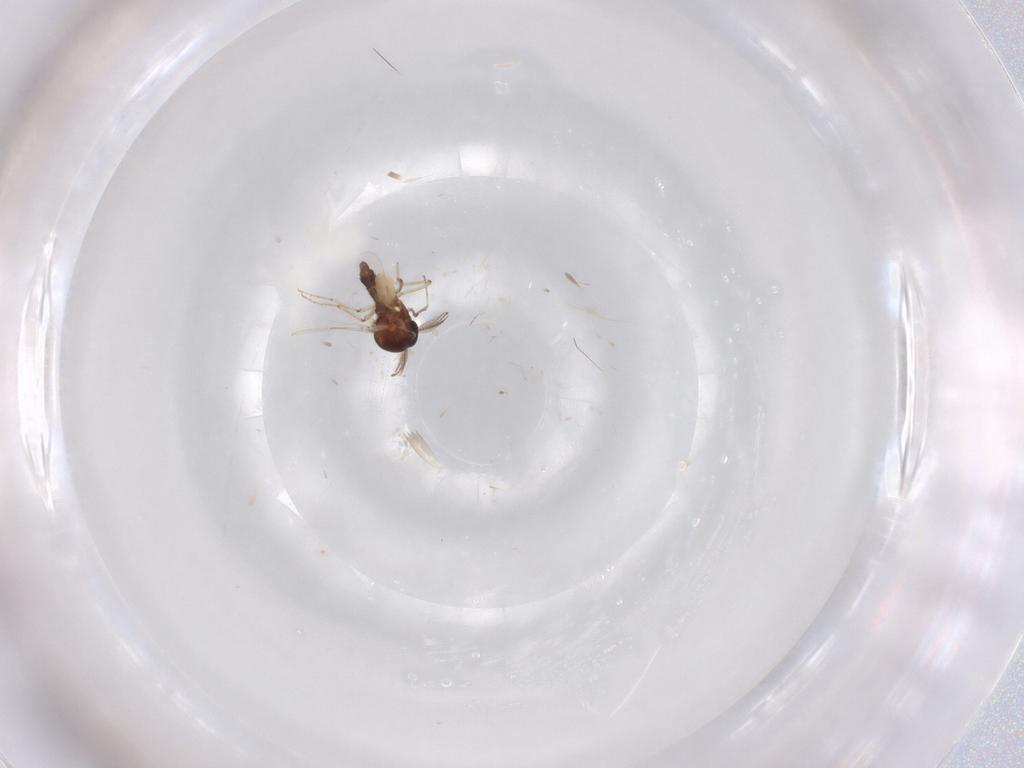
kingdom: Animalia
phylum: Arthropoda
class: Insecta
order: Diptera
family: Ceratopogonidae
